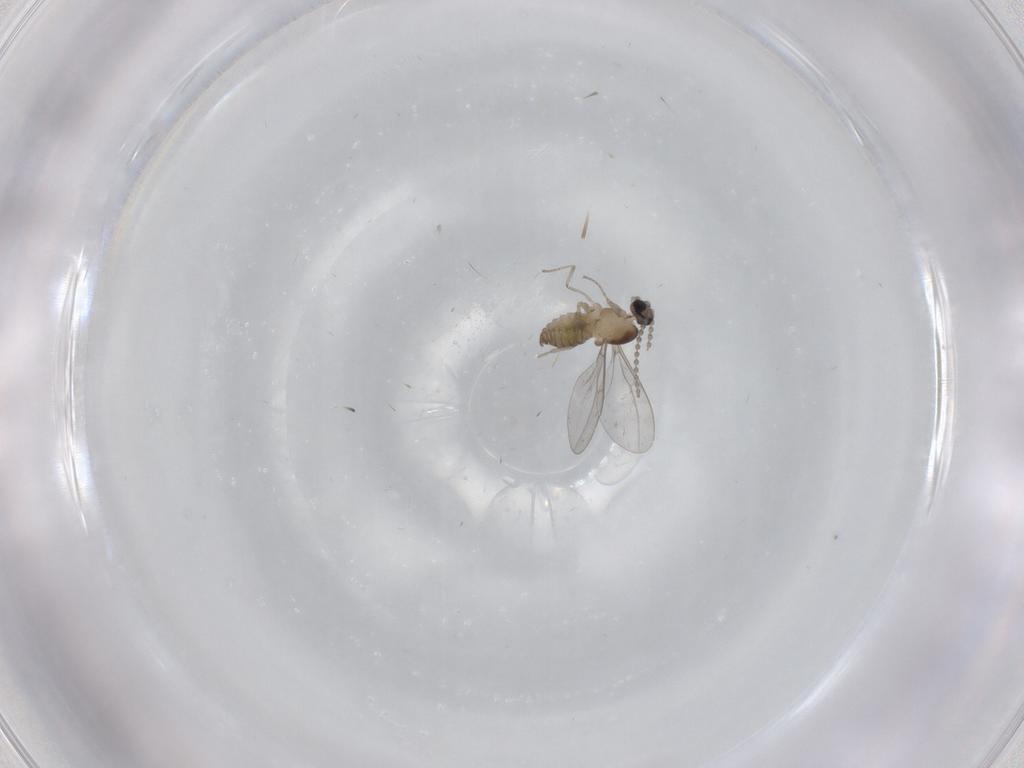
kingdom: Animalia
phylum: Arthropoda
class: Insecta
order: Diptera
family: Cecidomyiidae
